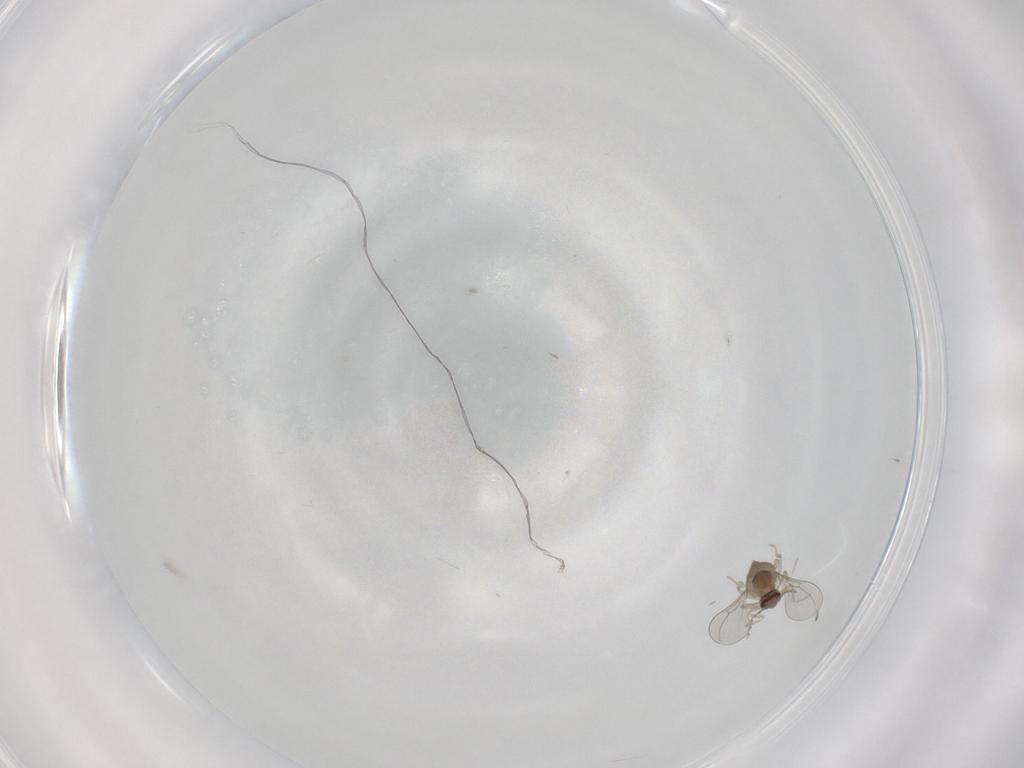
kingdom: Animalia
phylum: Arthropoda
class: Insecta
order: Diptera
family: Cecidomyiidae
